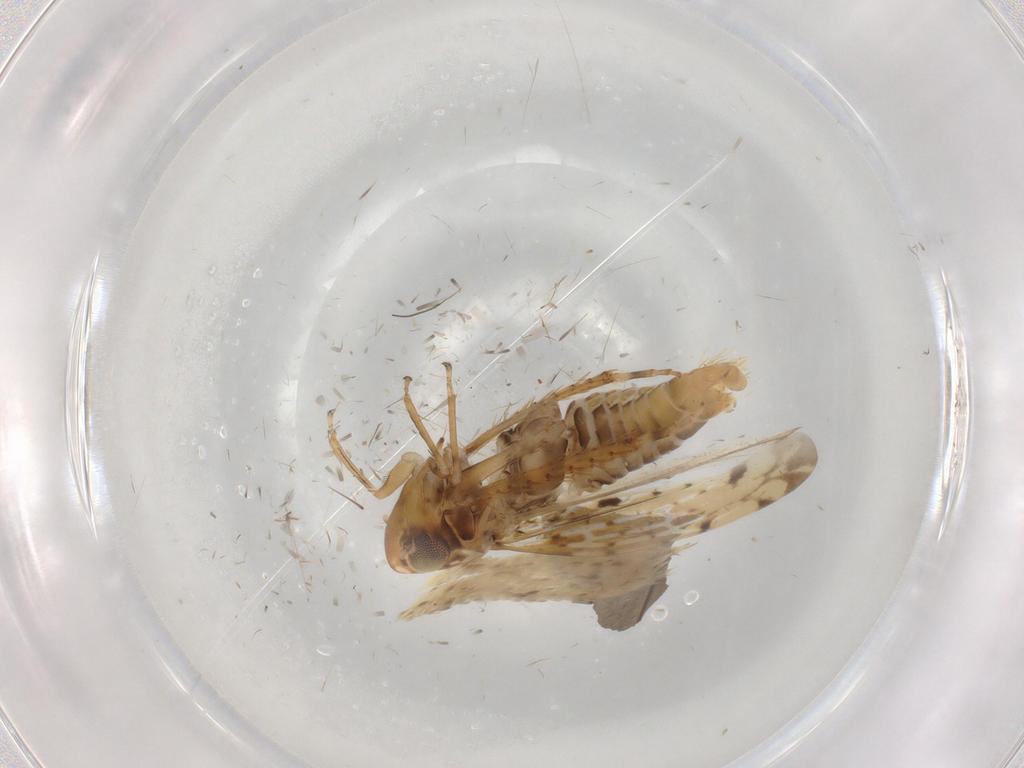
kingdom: Animalia
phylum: Arthropoda
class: Insecta
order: Hemiptera
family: Cicadellidae
